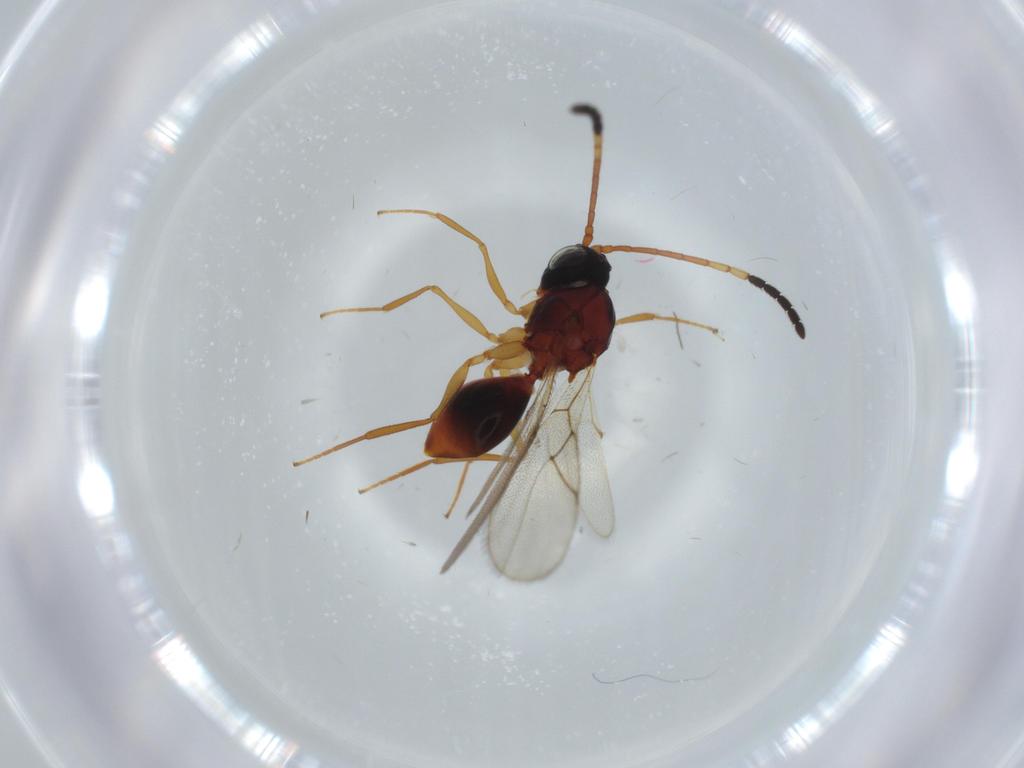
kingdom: Animalia
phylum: Arthropoda
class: Insecta
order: Hymenoptera
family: Figitidae
